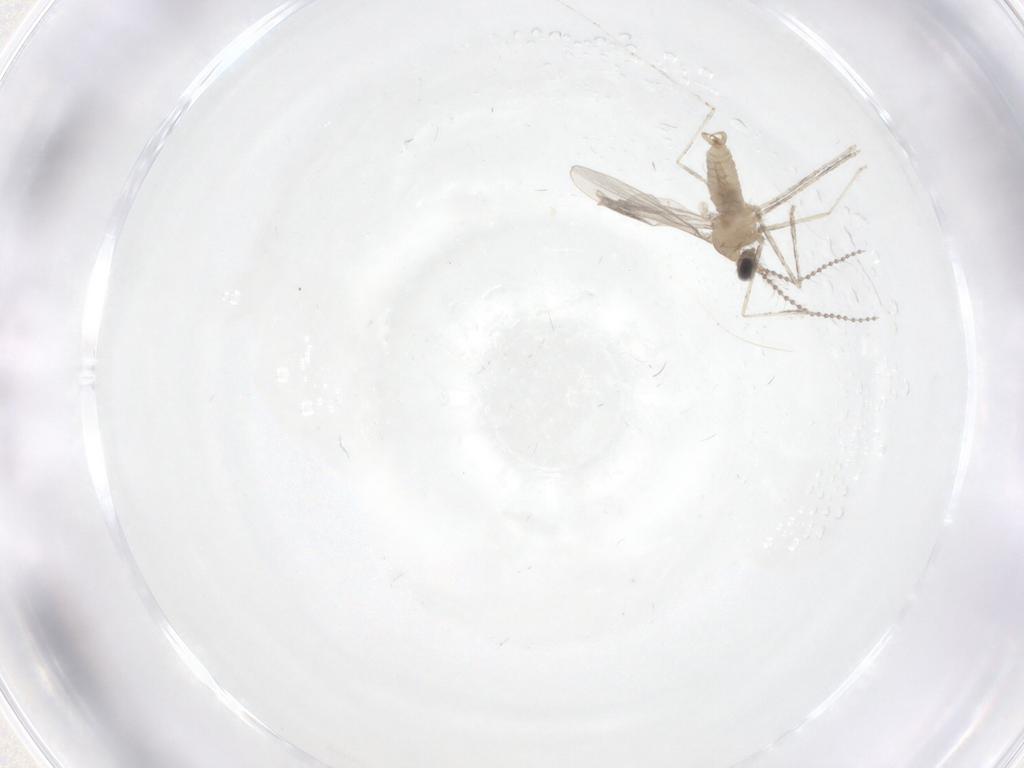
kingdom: Animalia
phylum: Arthropoda
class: Insecta
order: Diptera
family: Cecidomyiidae
